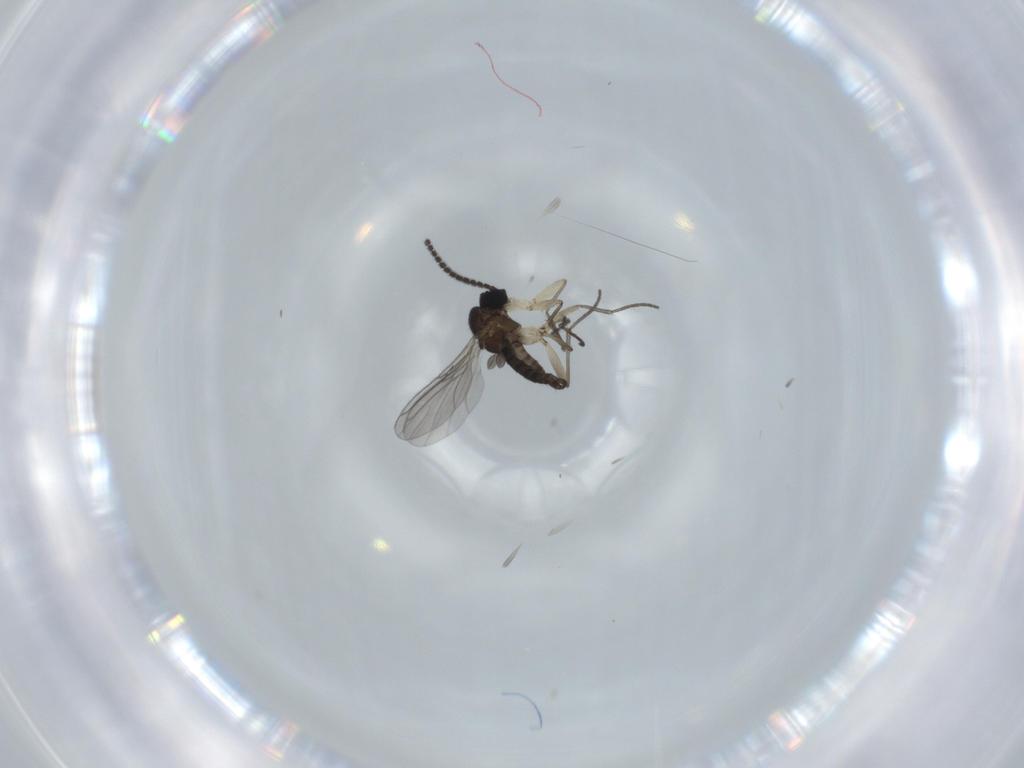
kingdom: Animalia
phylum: Arthropoda
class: Insecta
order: Diptera
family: Sciaridae
